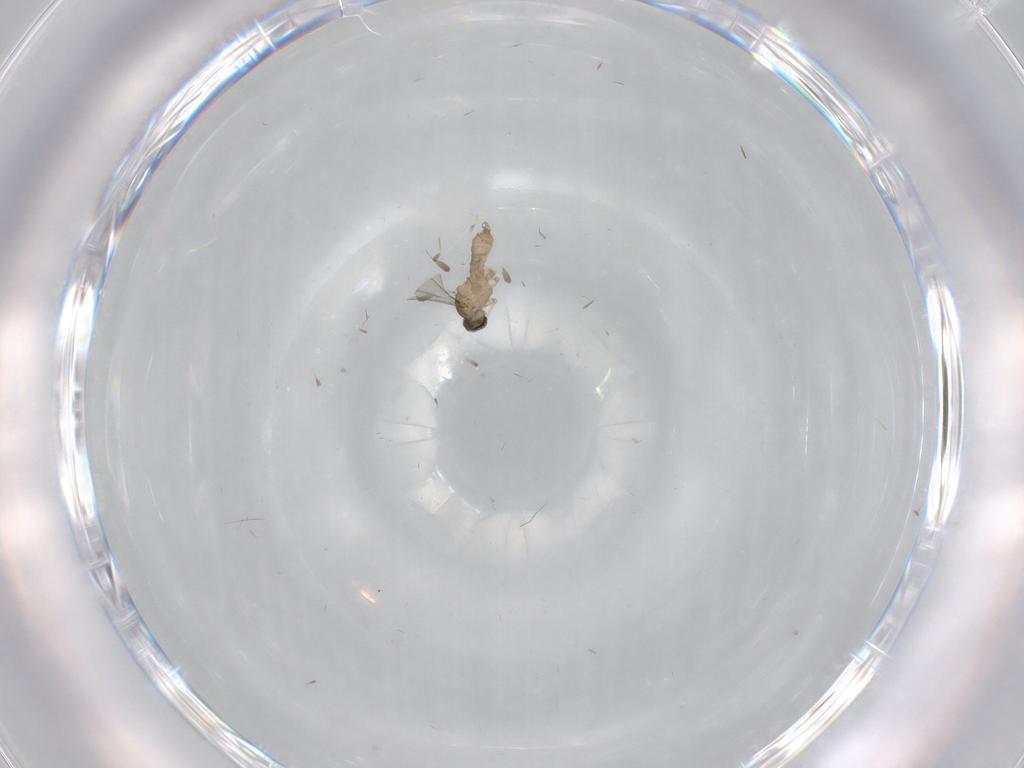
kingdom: Animalia
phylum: Arthropoda
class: Insecta
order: Diptera
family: Cecidomyiidae
